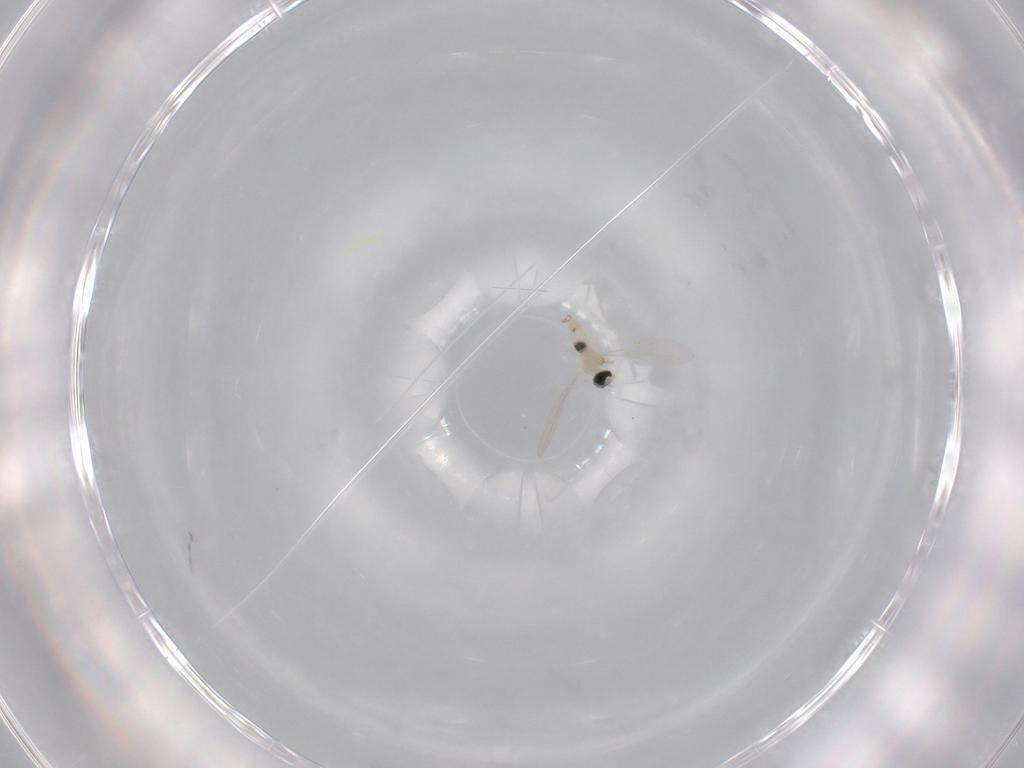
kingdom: Animalia
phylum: Arthropoda
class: Insecta
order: Diptera
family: Cecidomyiidae
